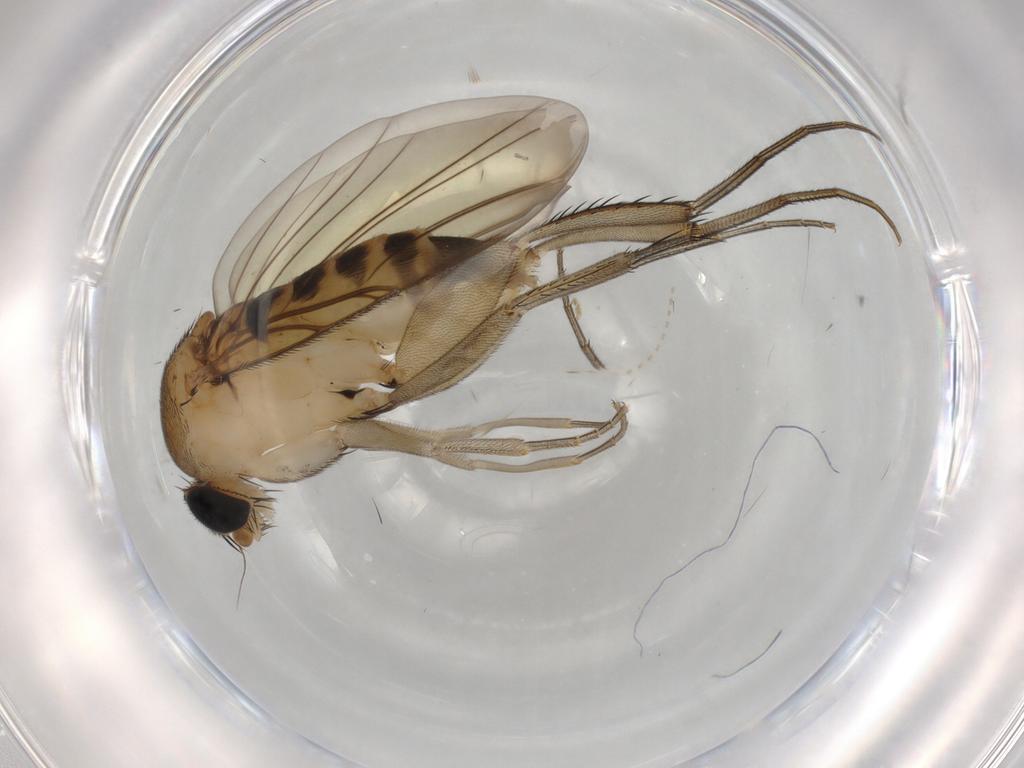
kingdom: Animalia
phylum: Arthropoda
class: Insecta
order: Diptera
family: Phoridae
